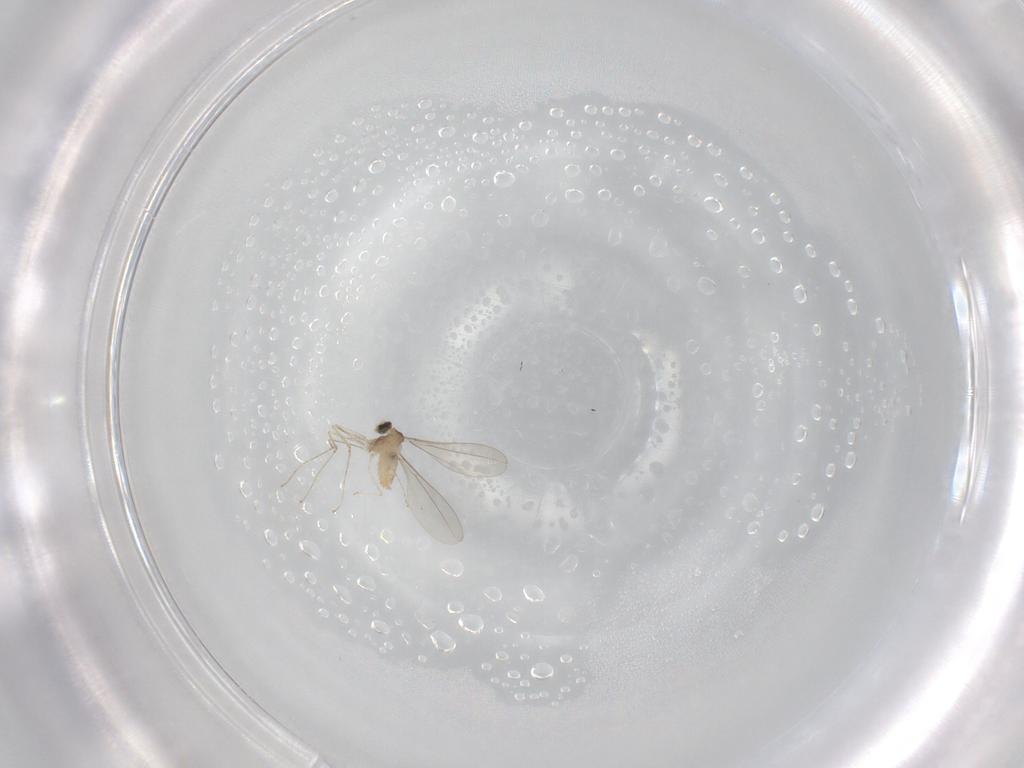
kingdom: Animalia
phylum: Arthropoda
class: Insecta
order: Diptera
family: Cecidomyiidae
